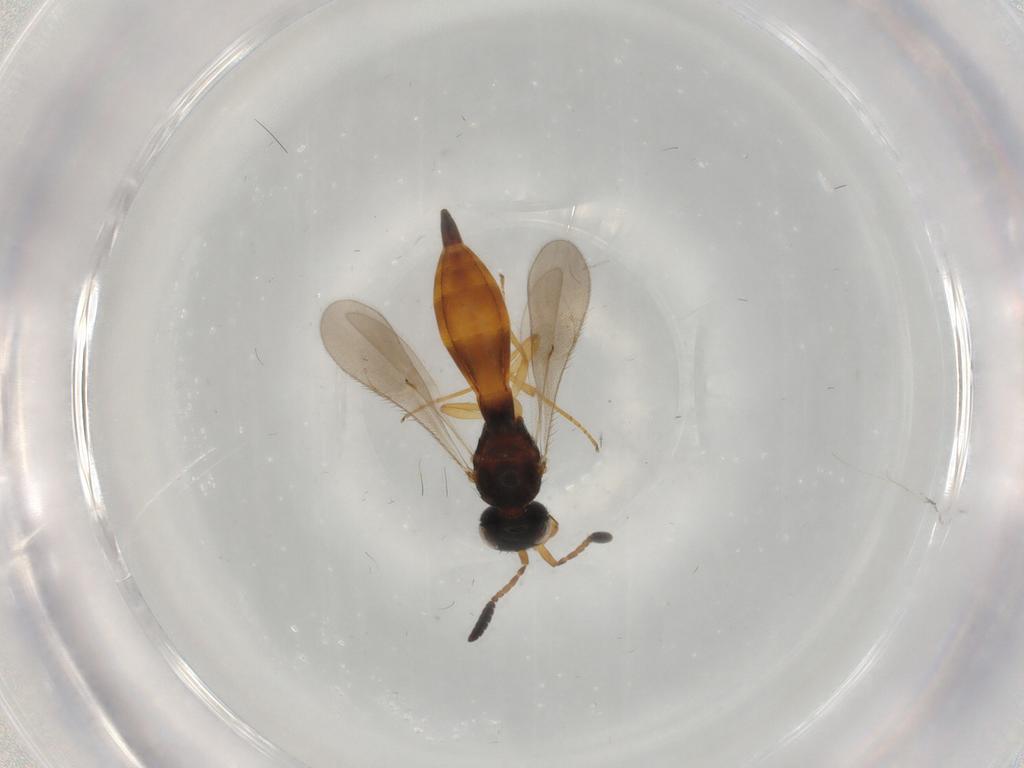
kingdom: Animalia
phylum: Arthropoda
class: Insecta
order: Hymenoptera
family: Scelionidae
